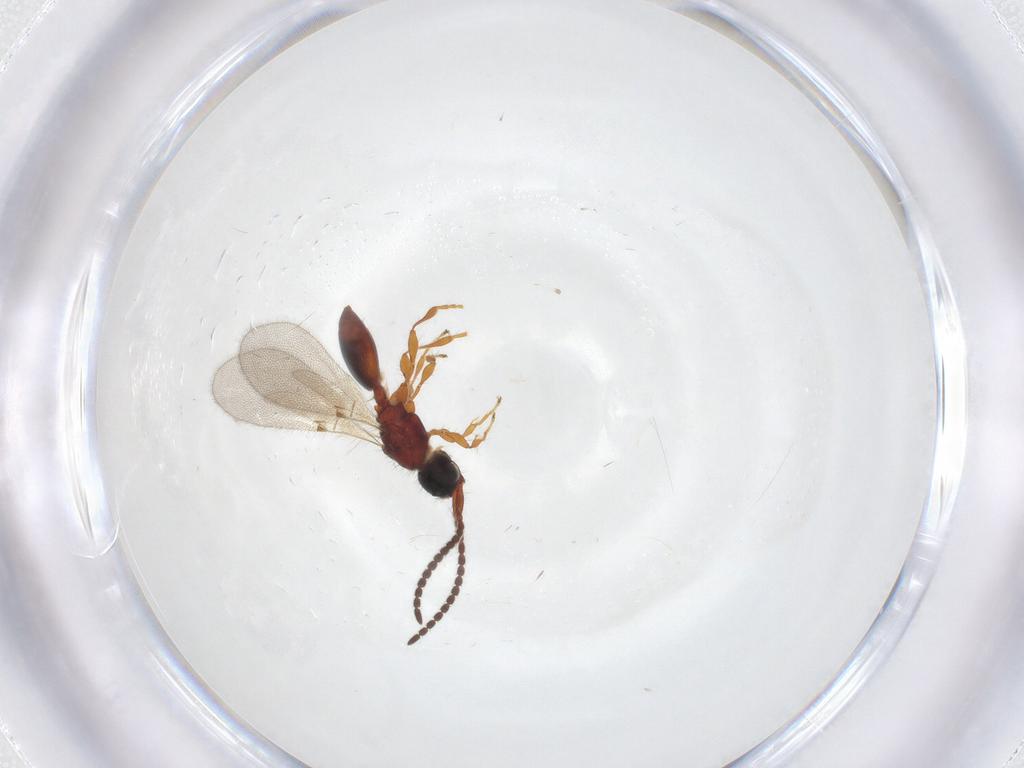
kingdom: Animalia
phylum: Arthropoda
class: Insecta
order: Hymenoptera
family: Diapriidae
